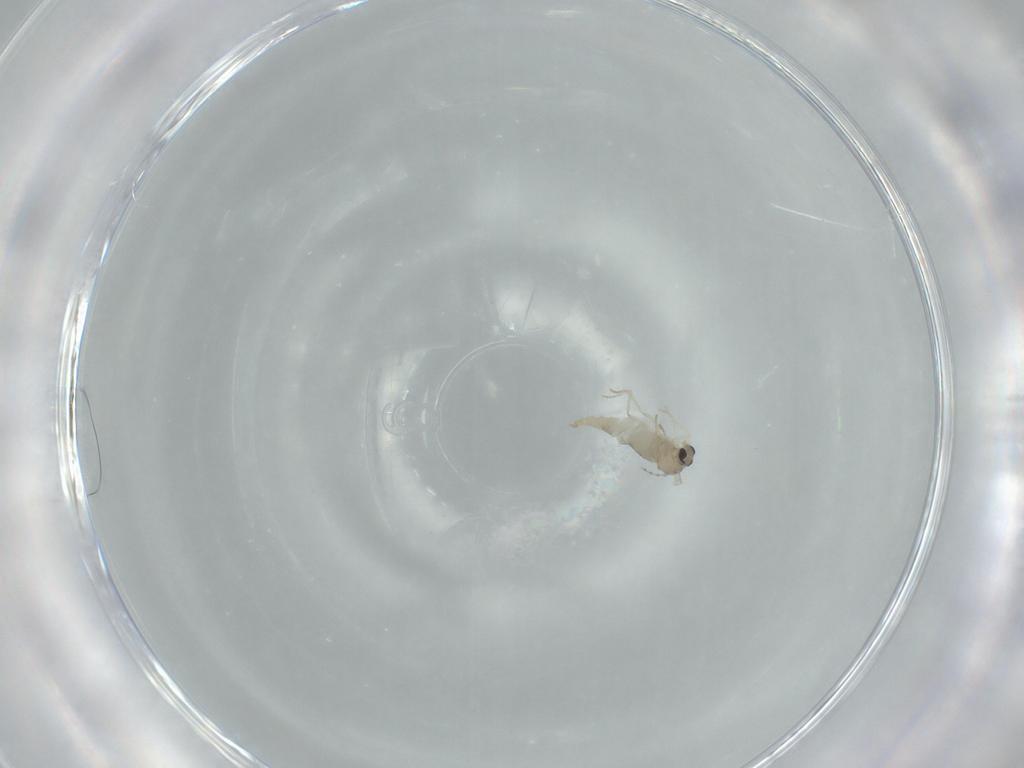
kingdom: Animalia
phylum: Arthropoda
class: Insecta
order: Diptera
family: Cecidomyiidae
